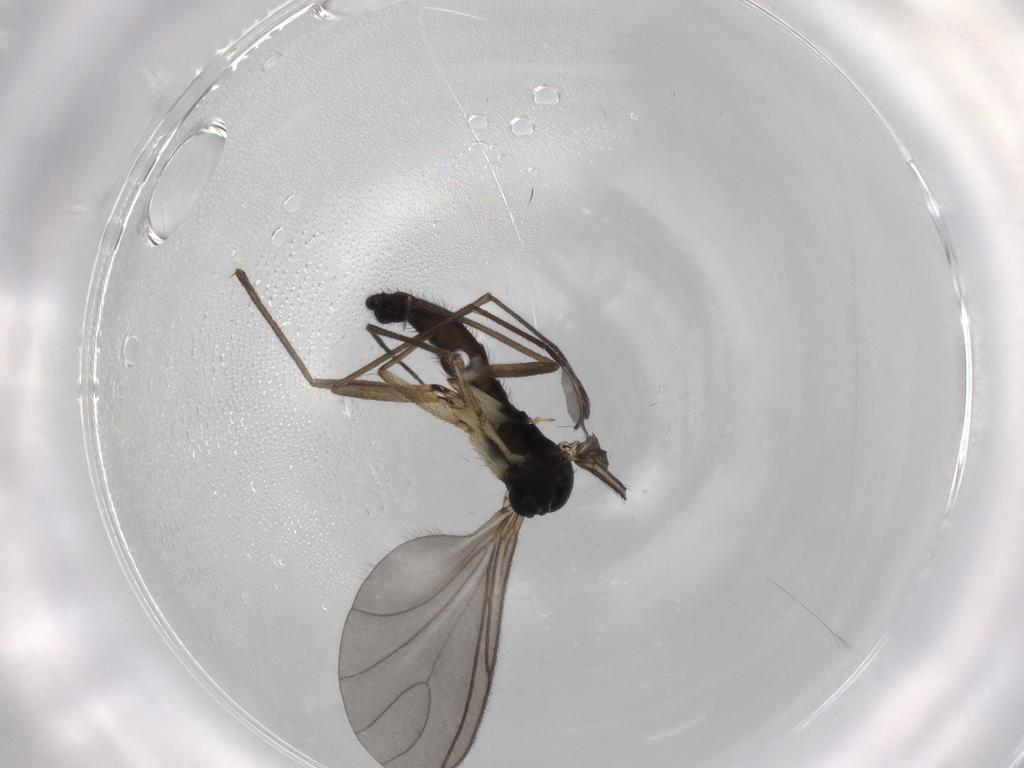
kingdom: Animalia
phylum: Arthropoda
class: Insecta
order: Diptera
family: Sciaridae
